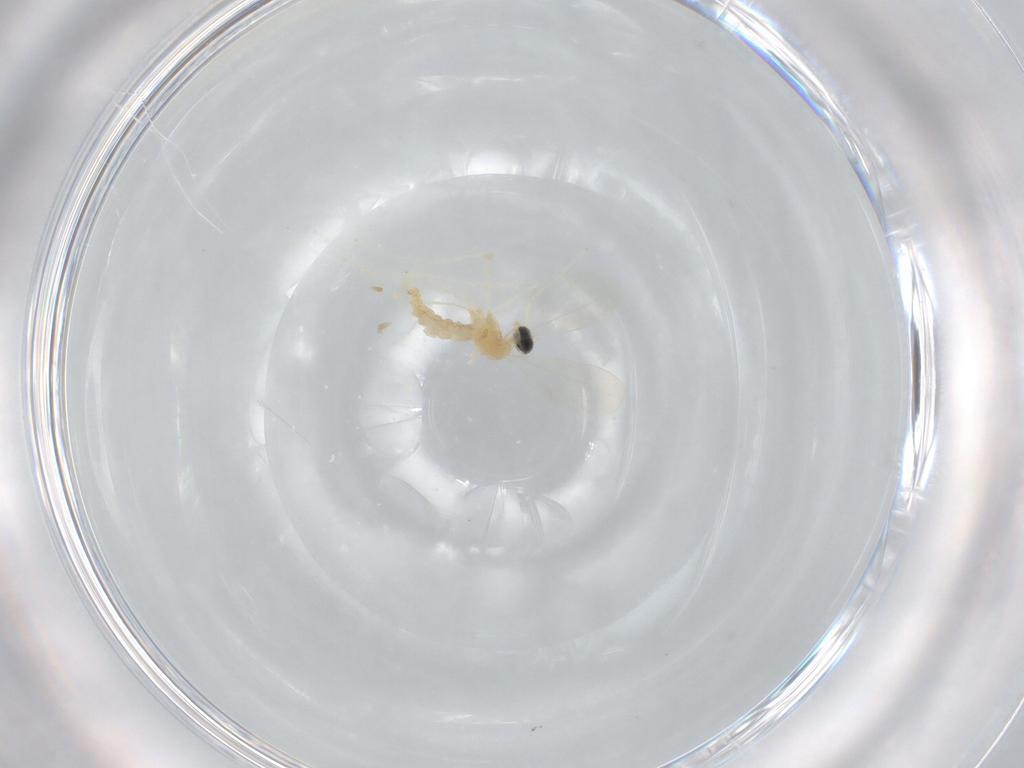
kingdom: Animalia
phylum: Arthropoda
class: Insecta
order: Diptera
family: Cecidomyiidae
